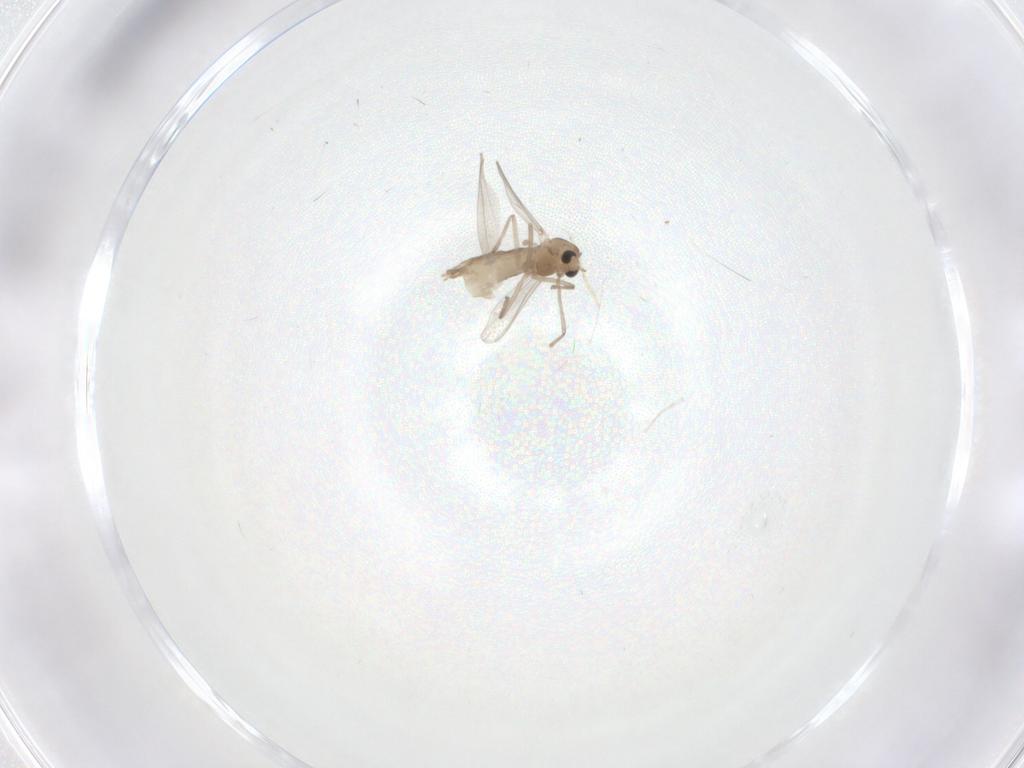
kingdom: Animalia
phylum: Arthropoda
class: Insecta
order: Diptera
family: Chironomidae
